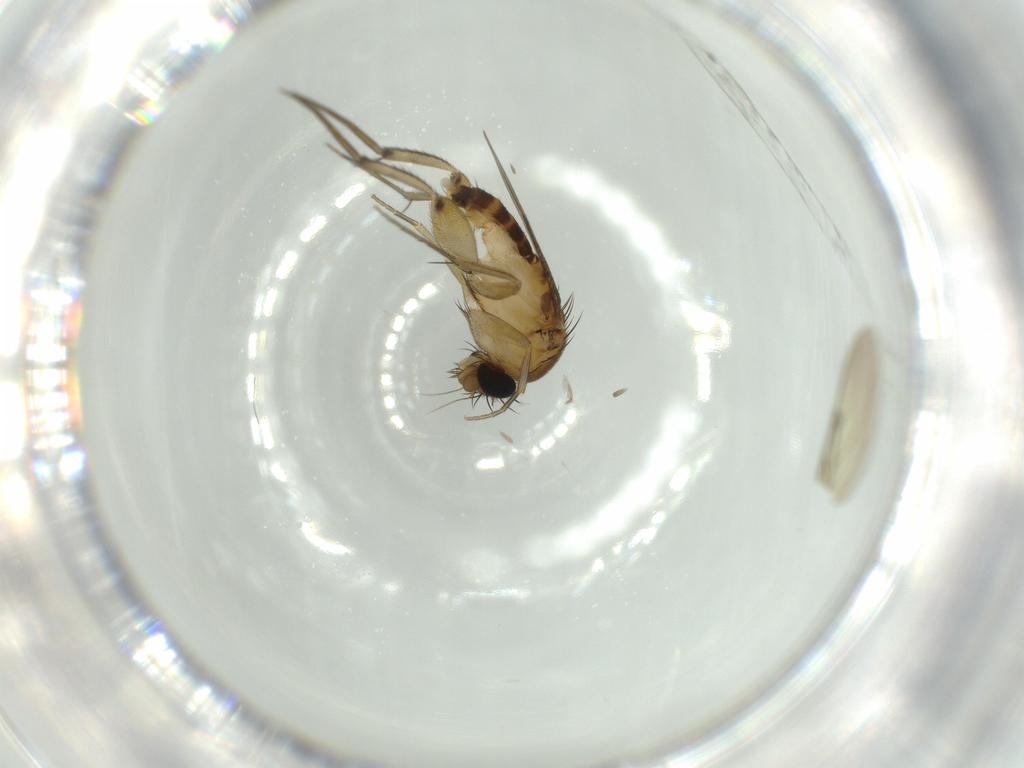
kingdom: Animalia
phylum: Arthropoda
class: Insecta
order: Diptera
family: Phoridae
